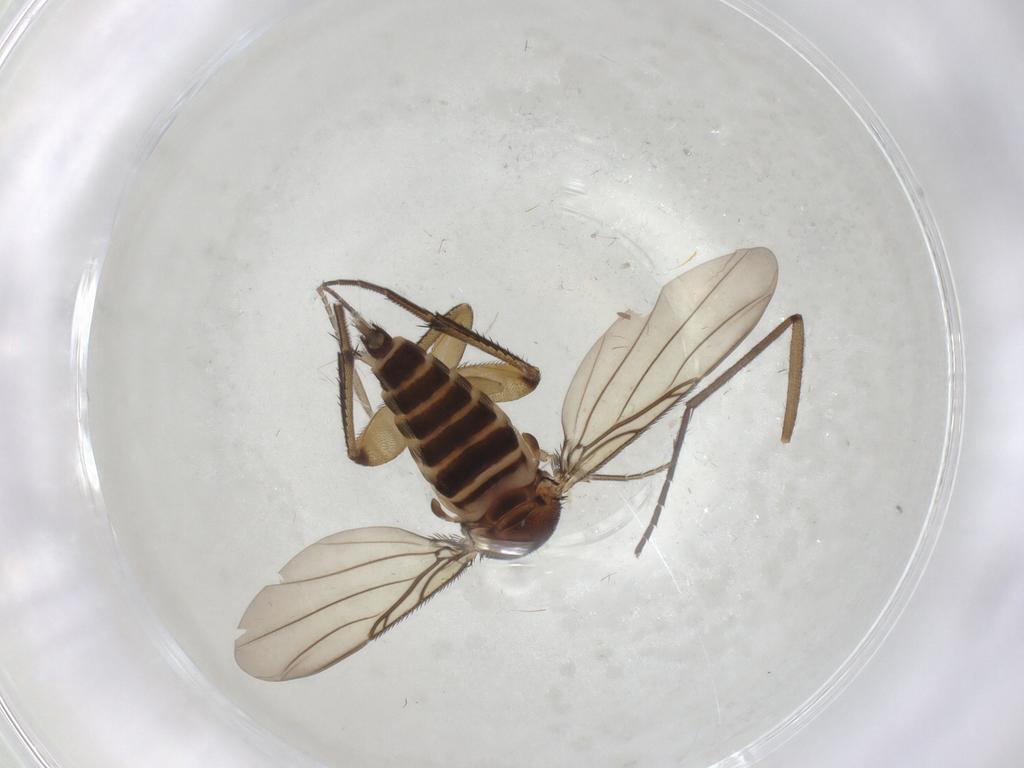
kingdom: Animalia
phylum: Arthropoda
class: Insecta
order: Diptera
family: Phoridae
